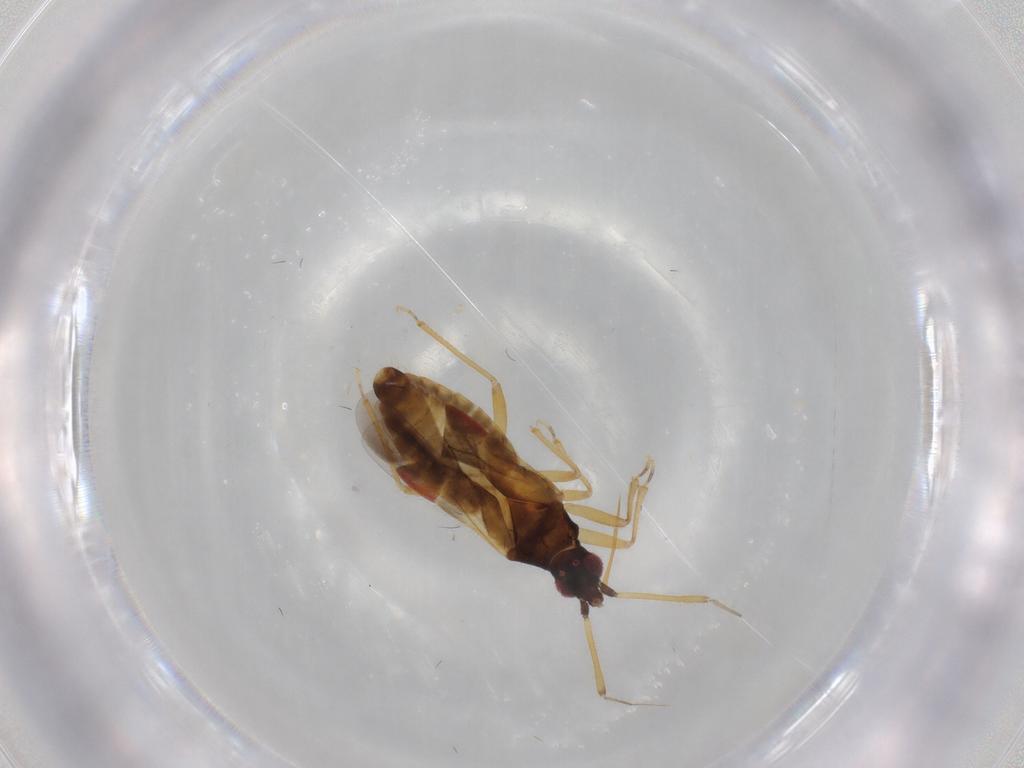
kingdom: Animalia
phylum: Arthropoda
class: Insecta
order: Hemiptera
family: Lasiochilidae
